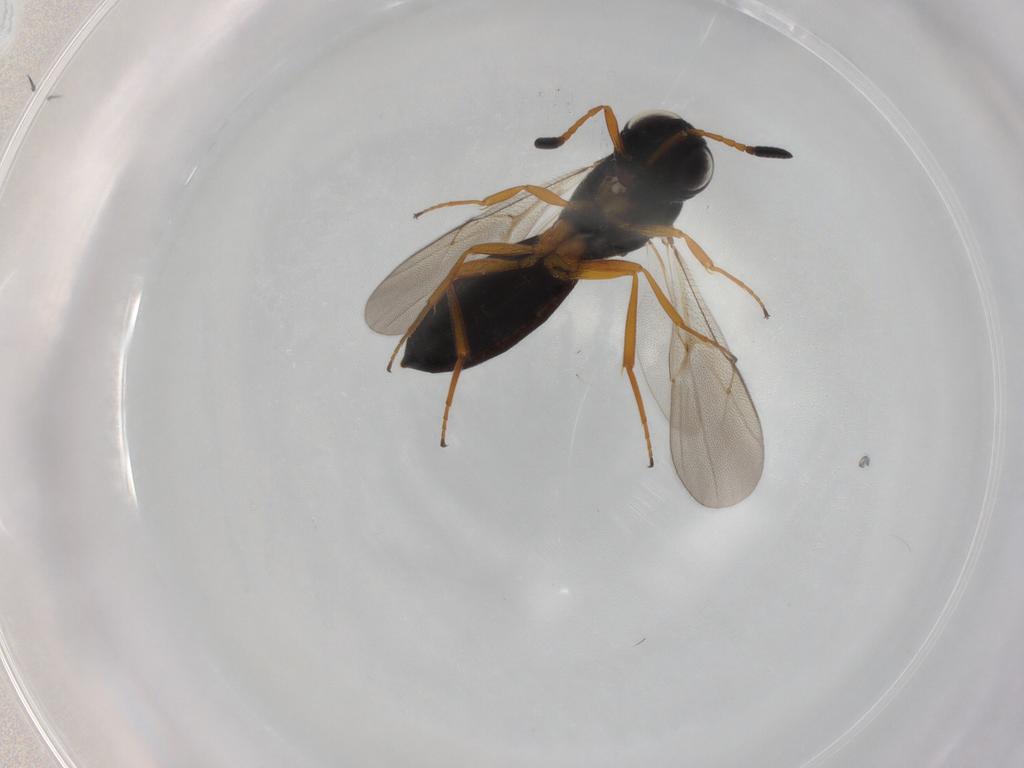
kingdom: Animalia
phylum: Arthropoda
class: Insecta
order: Hymenoptera
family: Scelionidae
